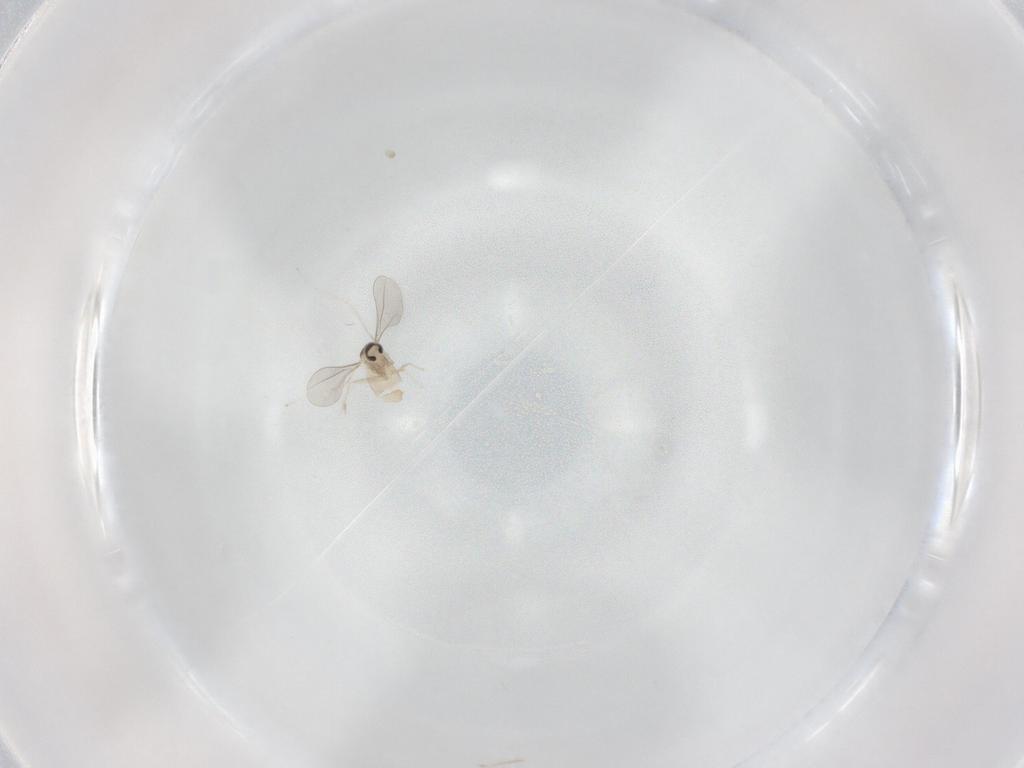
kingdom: Animalia
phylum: Arthropoda
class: Insecta
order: Diptera
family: Cecidomyiidae
